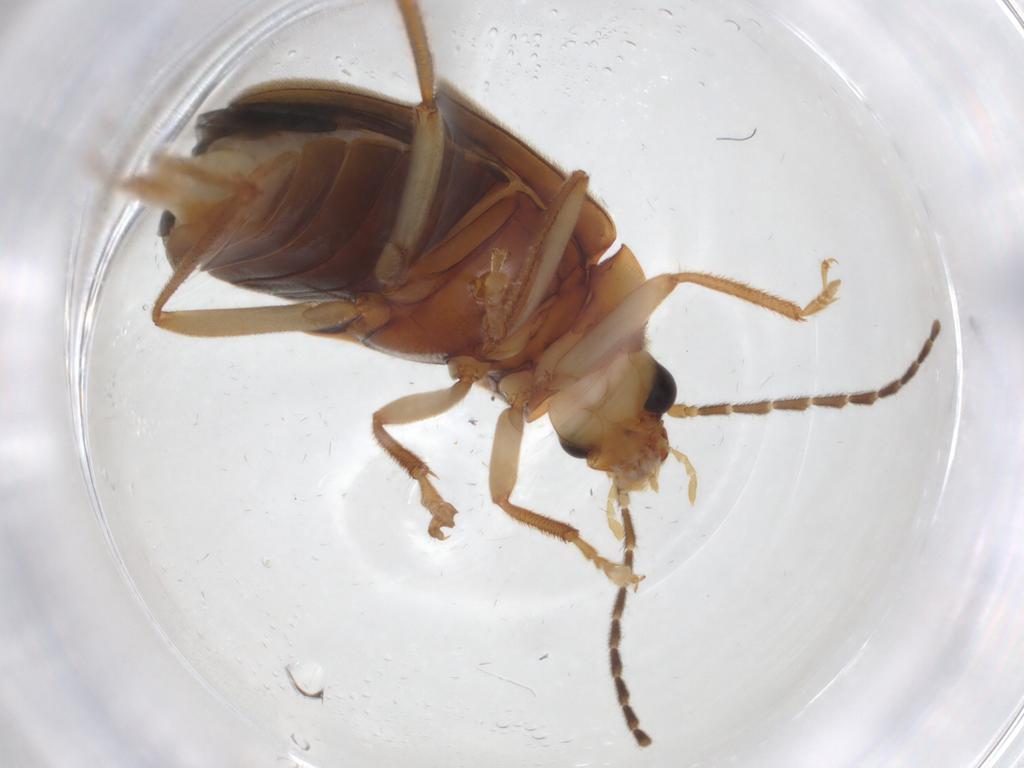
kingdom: Animalia
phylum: Arthropoda
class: Insecta
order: Coleoptera
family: Ptilodactylidae
